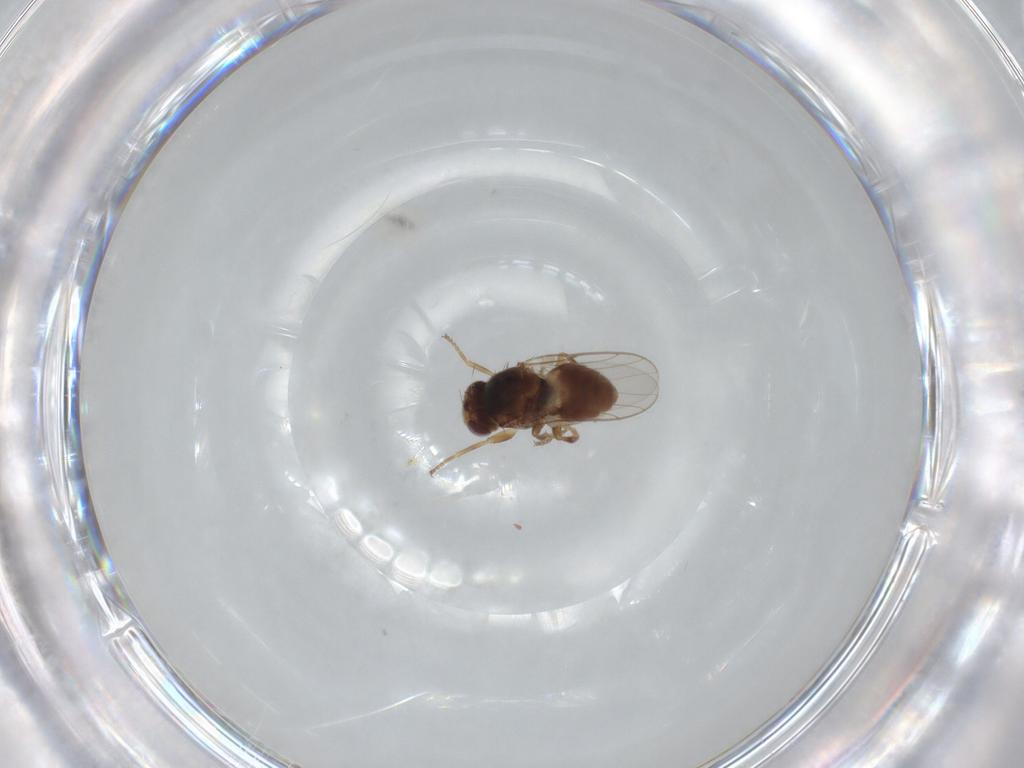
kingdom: Animalia
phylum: Arthropoda
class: Insecta
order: Diptera
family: Chloropidae
